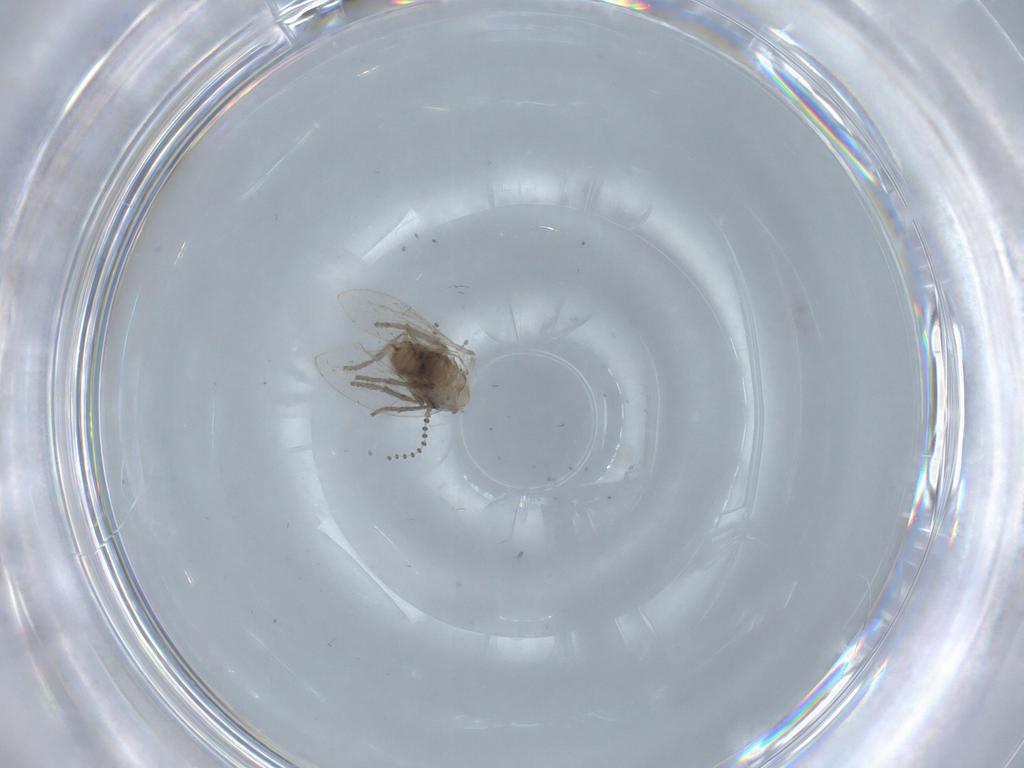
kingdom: Animalia
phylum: Arthropoda
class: Insecta
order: Diptera
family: Psychodidae
